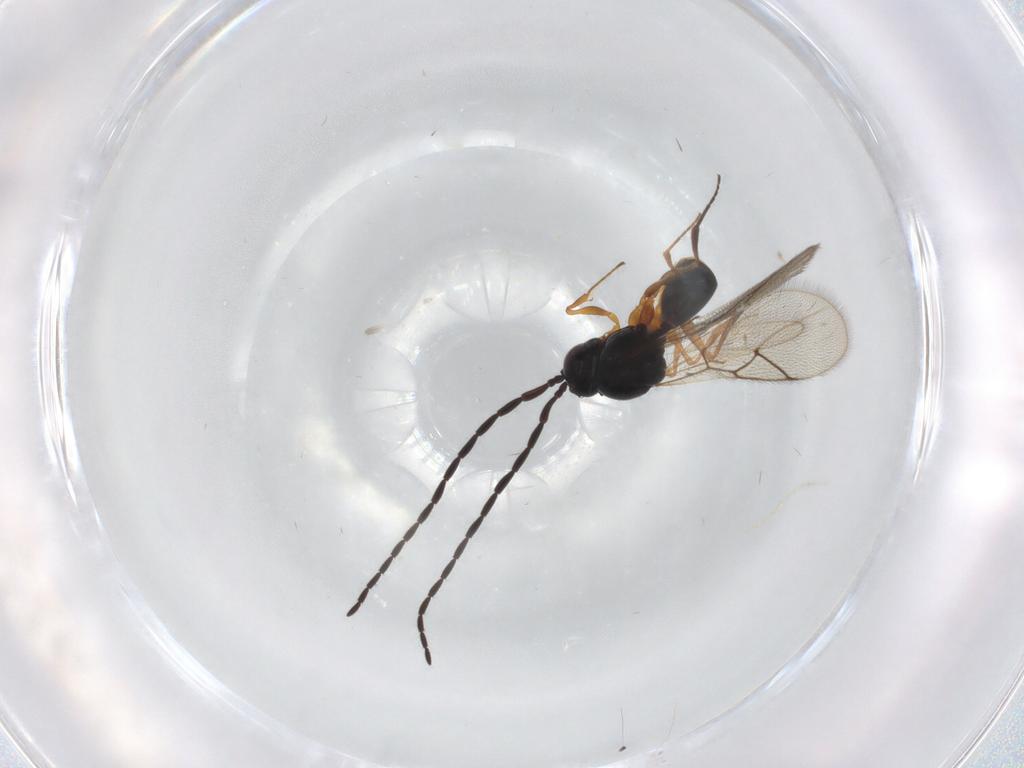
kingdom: Animalia
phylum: Arthropoda
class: Insecta
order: Hymenoptera
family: Figitidae
